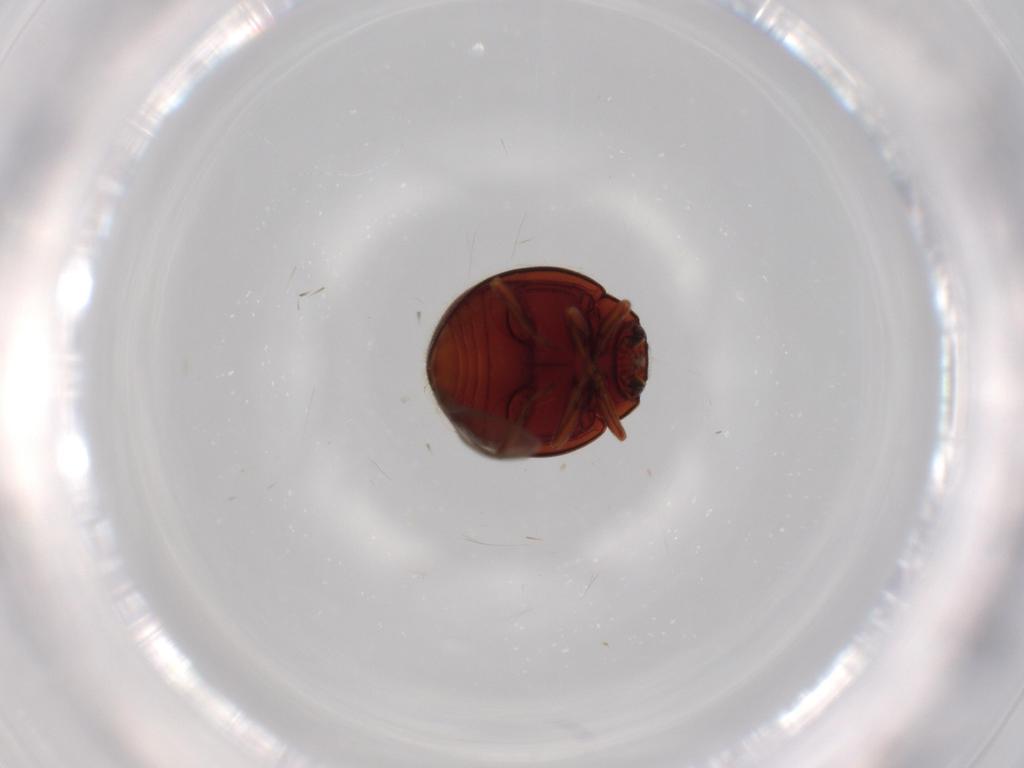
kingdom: Animalia
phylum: Arthropoda
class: Insecta
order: Coleoptera
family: Coccinellidae
